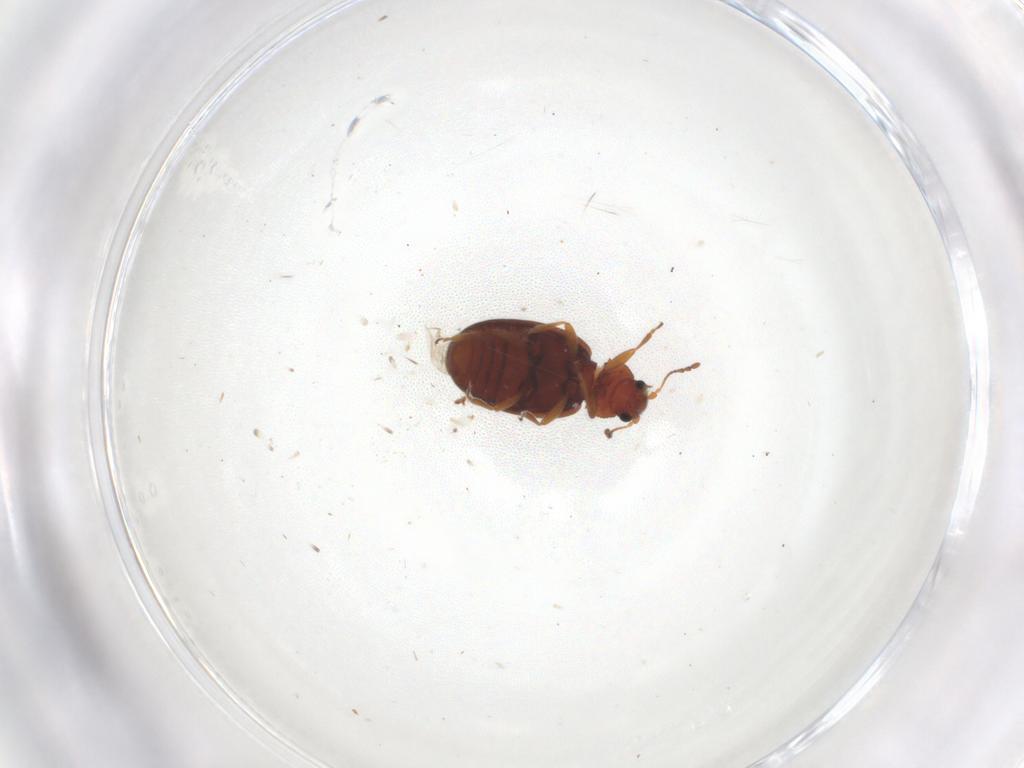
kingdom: Animalia
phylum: Arthropoda
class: Insecta
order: Coleoptera
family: Latridiidae
